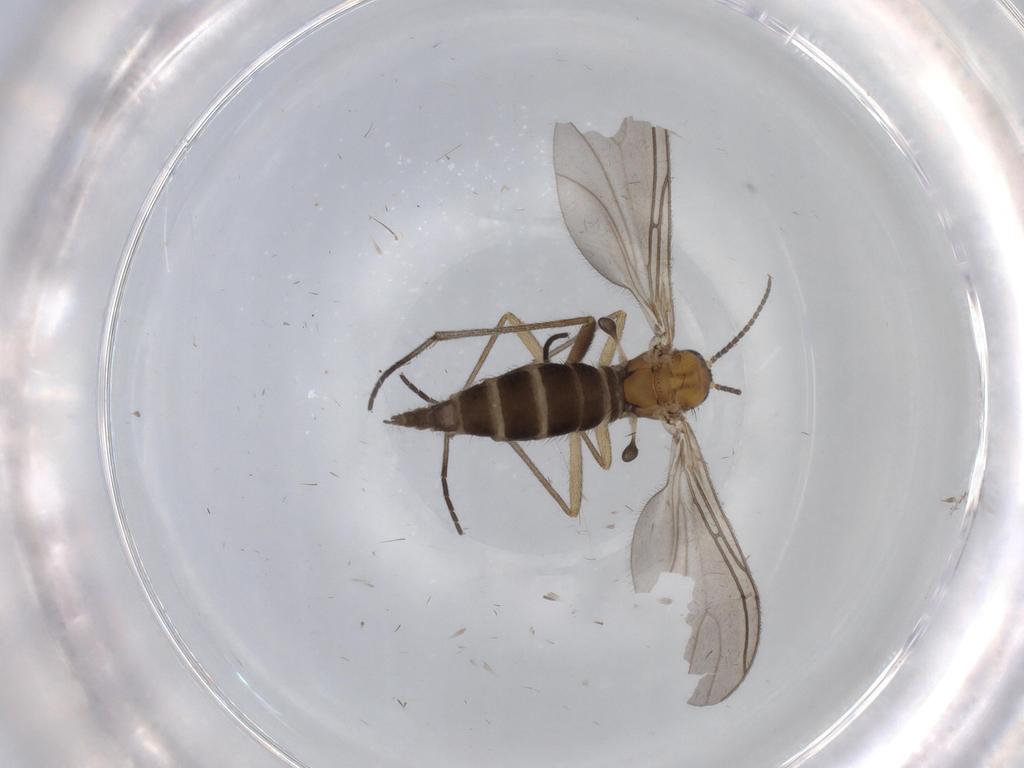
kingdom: Animalia
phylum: Arthropoda
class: Insecta
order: Diptera
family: Sciaridae
